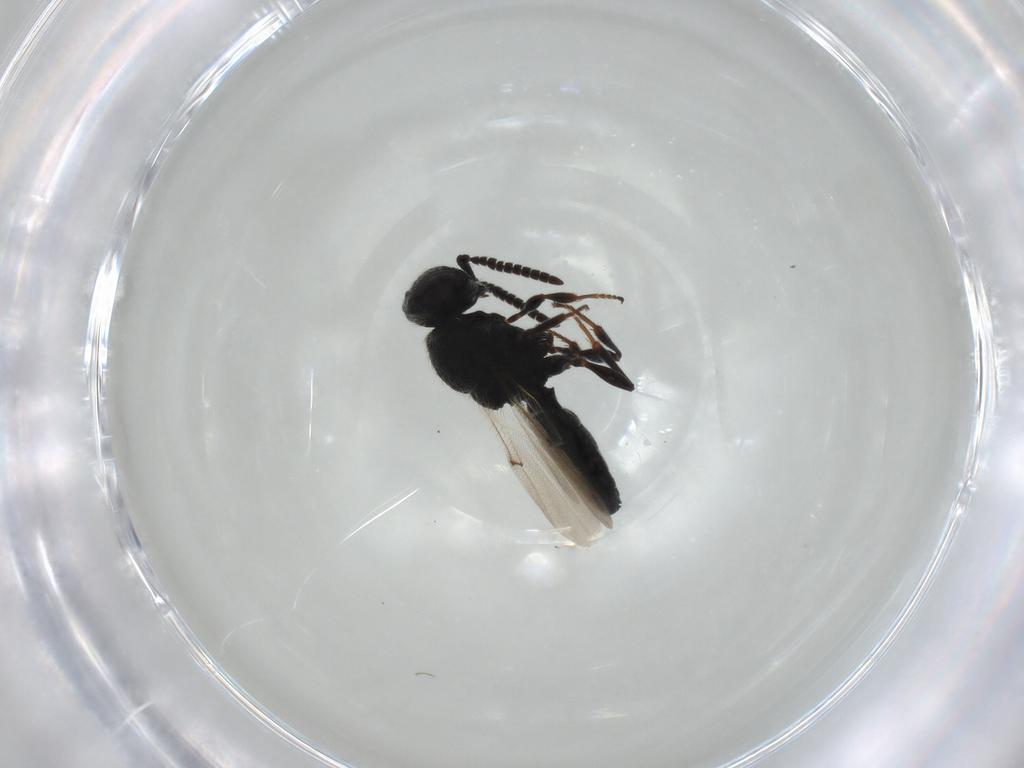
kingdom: Animalia
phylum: Arthropoda
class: Insecta
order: Hymenoptera
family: Scelionidae
